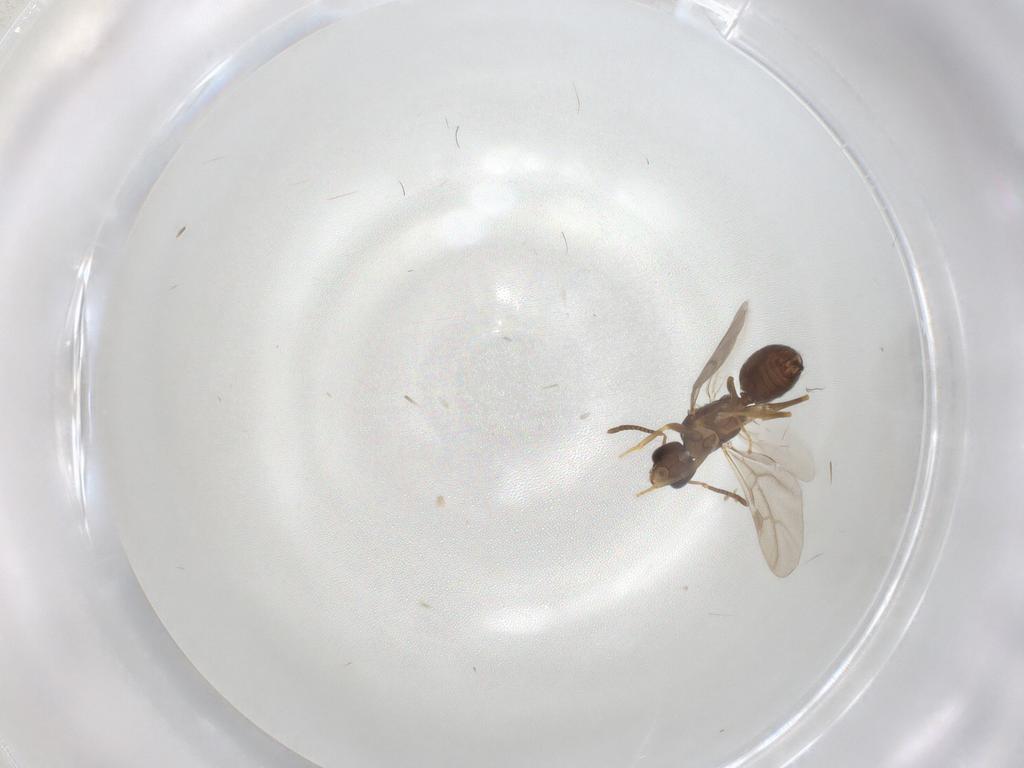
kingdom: Animalia
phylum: Arthropoda
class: Insecta
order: Hymenoptera
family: Formicidae
